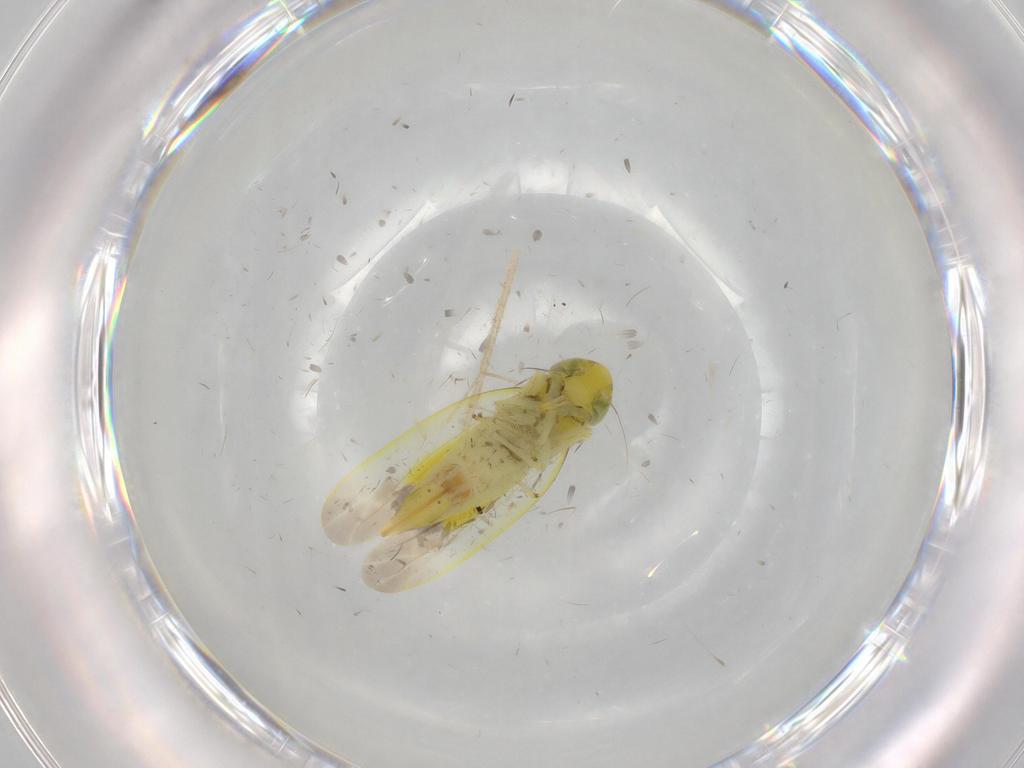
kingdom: Animalia
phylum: Arthropoda
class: Insecta
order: Hemiptera
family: Cicadellidae
